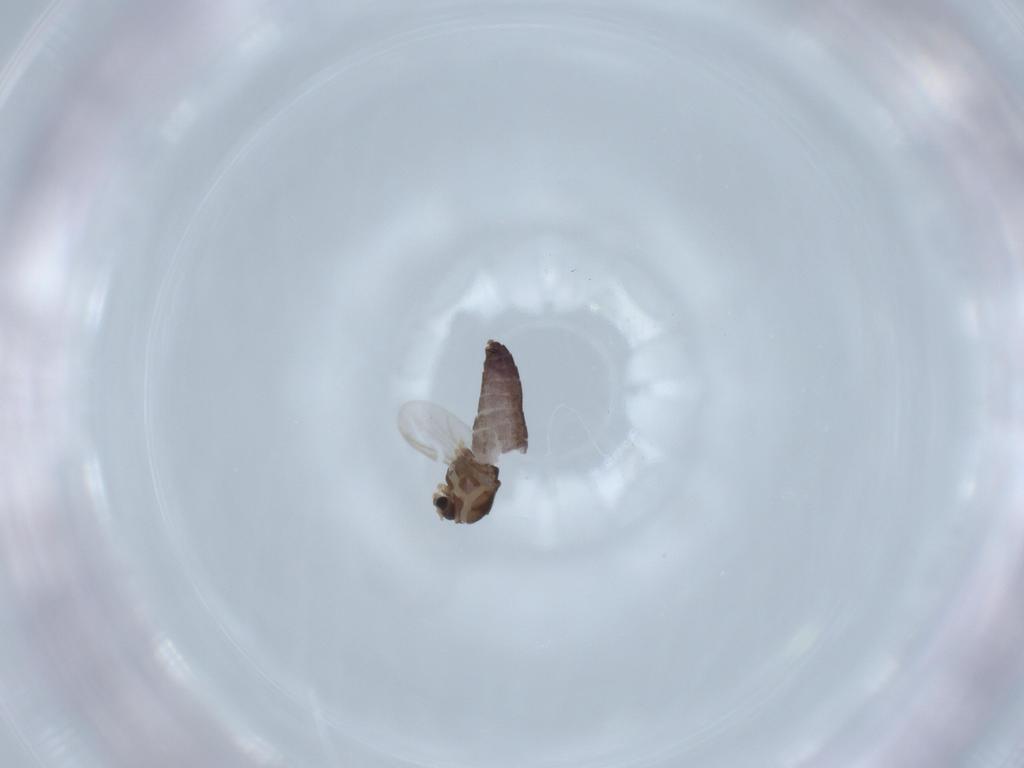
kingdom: Animalia
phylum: Arthropoda
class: Insecta
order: Diptera
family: Chironomidae
